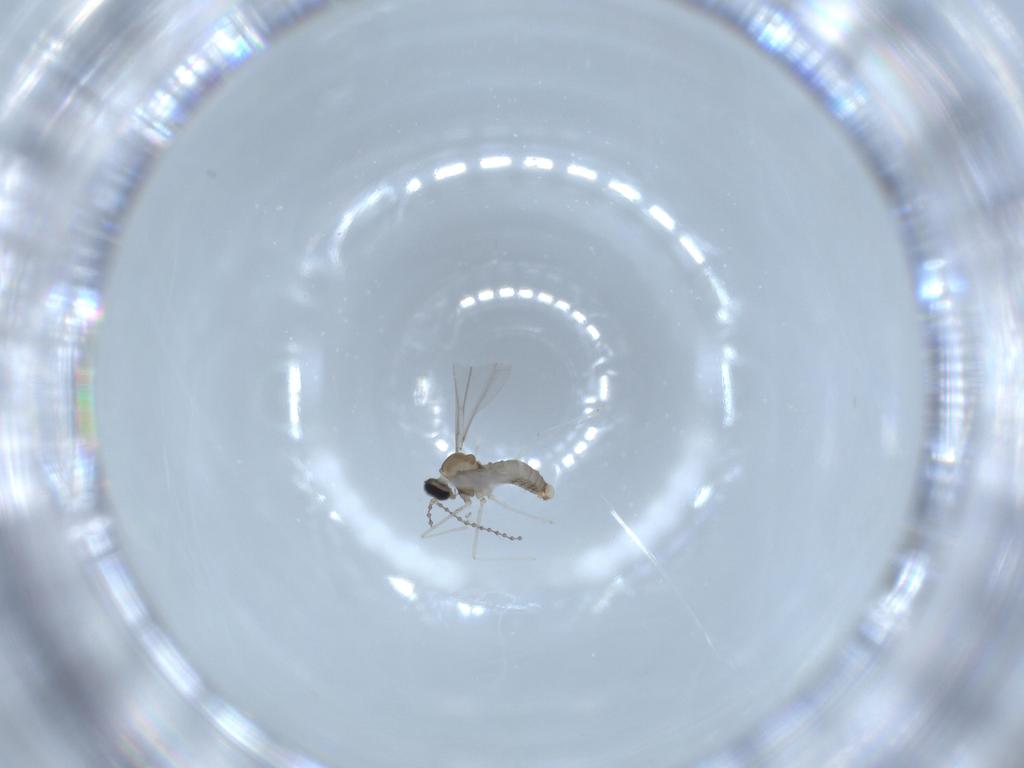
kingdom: Animalia
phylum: Arthropoda
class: Insecta
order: Diptera
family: Cecidomyiidae
